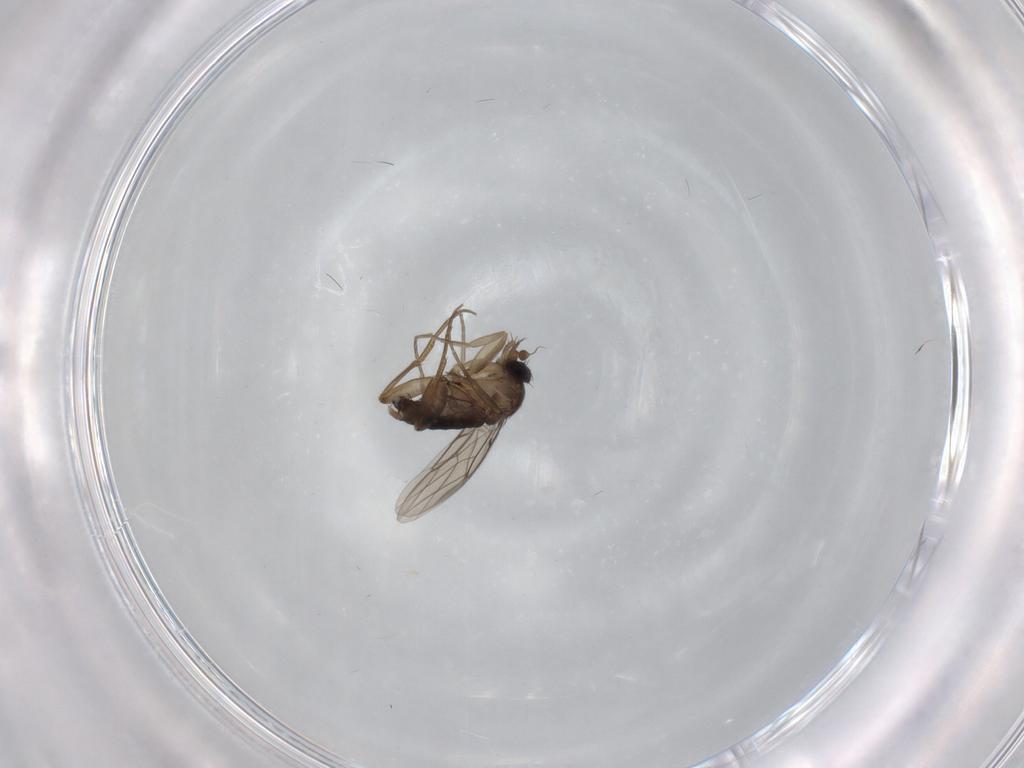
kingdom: Animalia
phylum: Arthropoda
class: Insecta
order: Diptera
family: Phoridae
